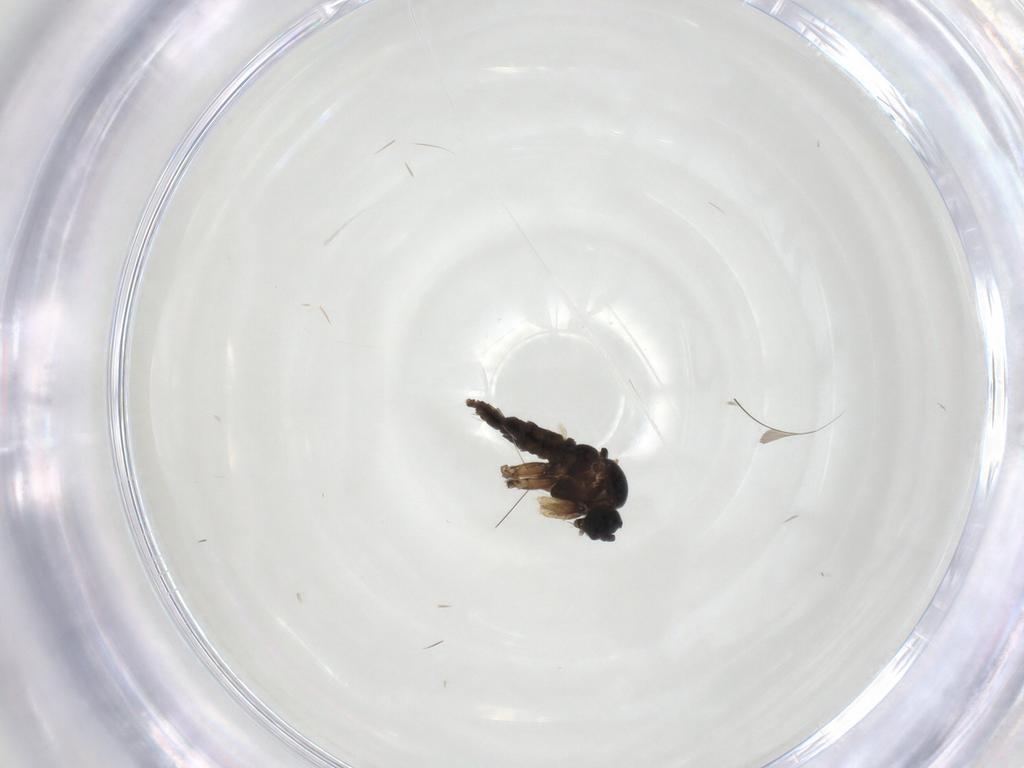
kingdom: Animalia
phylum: Arthropoda
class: Insecta
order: Diptera
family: Sciaridae
